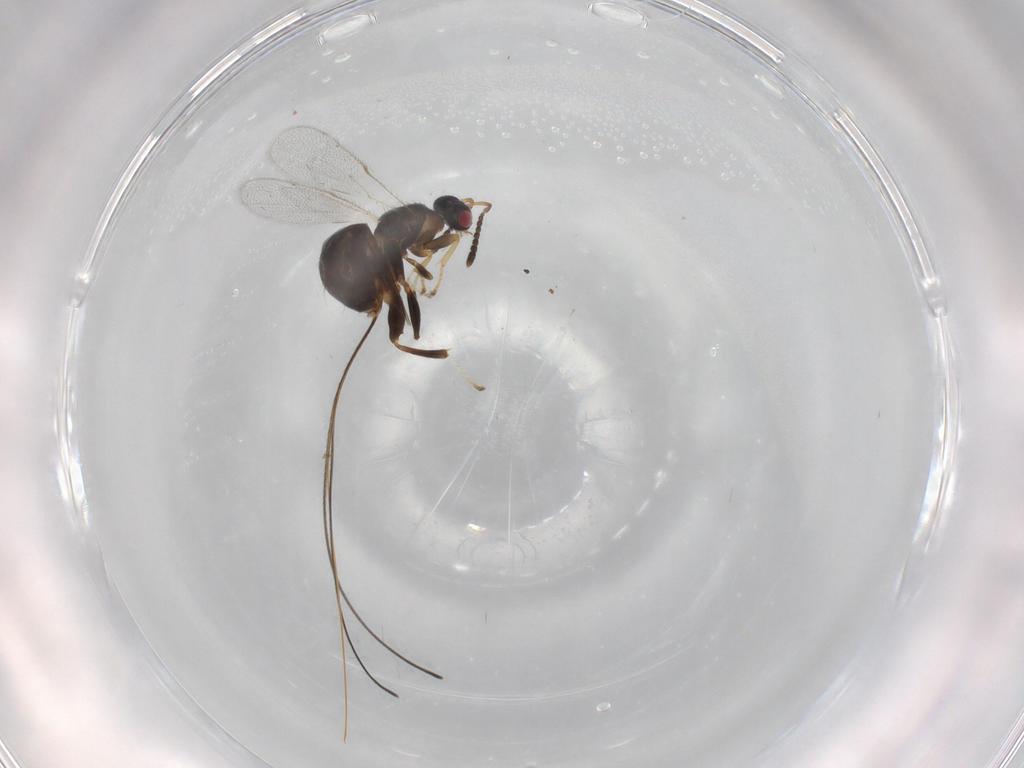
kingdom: Animalia
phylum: Arthropoda
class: Insecta
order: Hymenoptera
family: Torymidae
